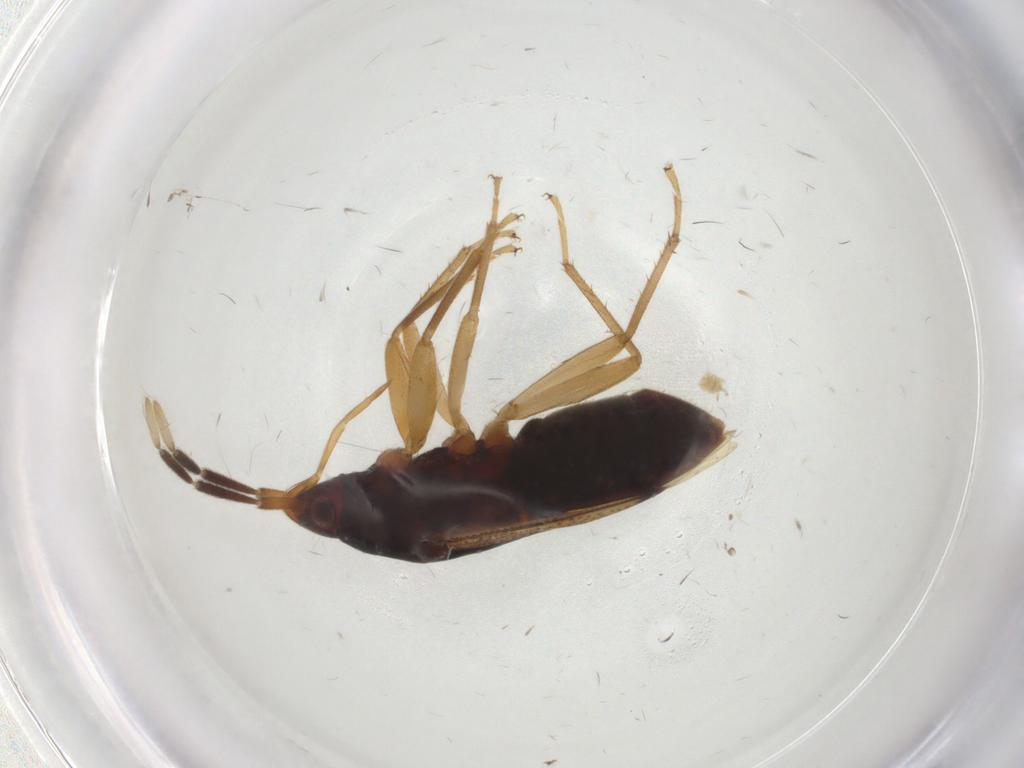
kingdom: Animalia
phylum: Arthropoda
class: Insecta
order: Hemiptera
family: Rhyparochromidae
